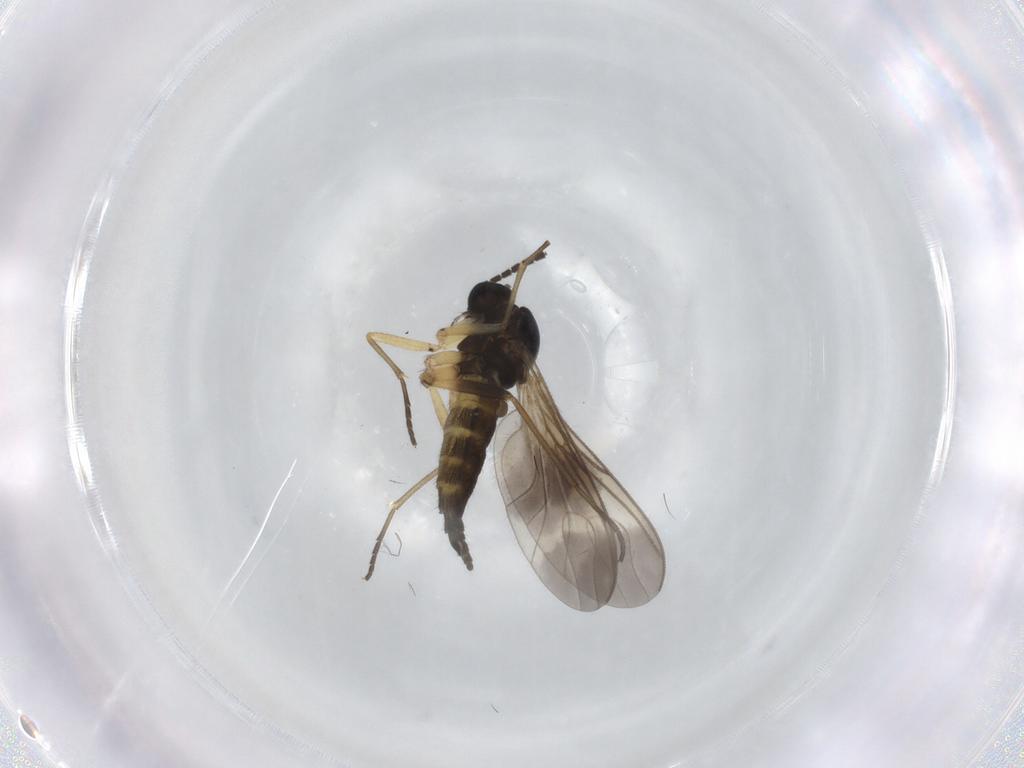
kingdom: Animalia
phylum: Arthropoda
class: Insecta
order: Diptera
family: Sciaridae
